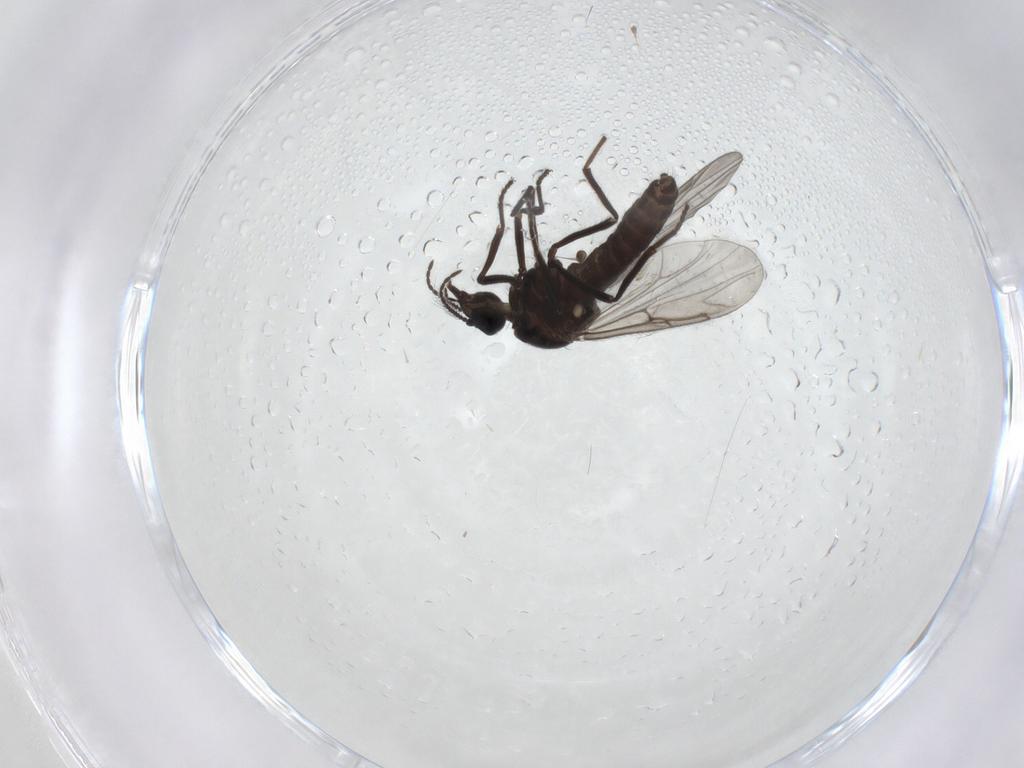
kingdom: Animalia
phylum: Arthropoda
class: Insecta
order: Diptera
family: Ceratopogonidae
